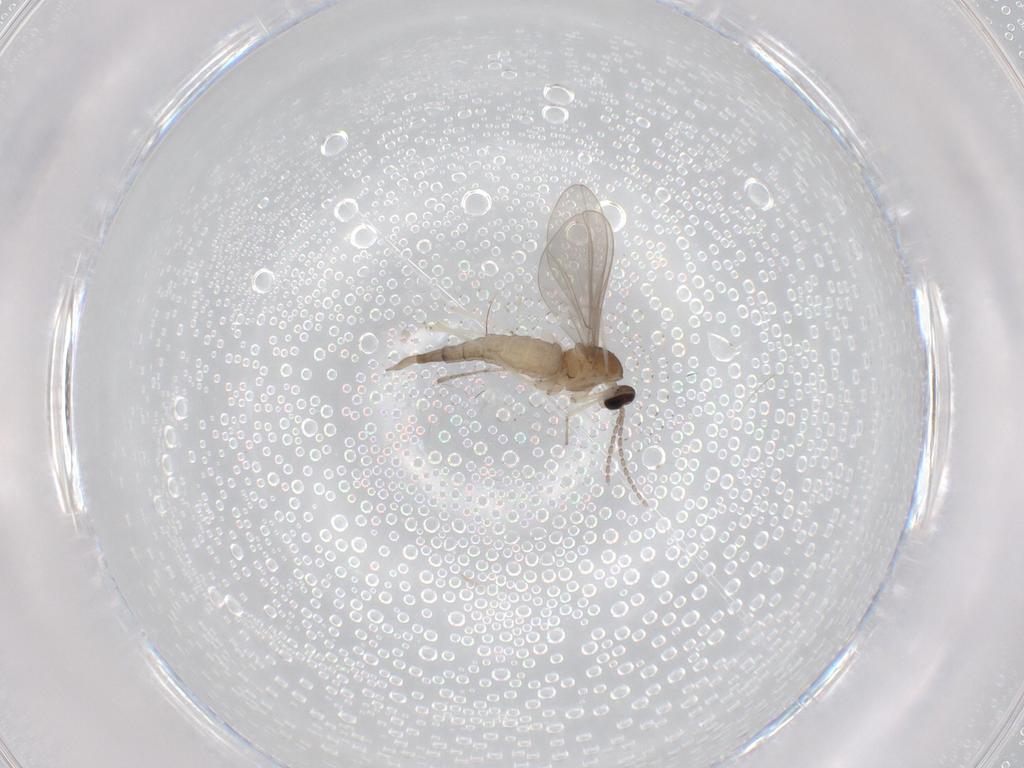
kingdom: Animalia
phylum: Arthropoda
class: Insecta
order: Diptera
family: Cecidomyiidae
